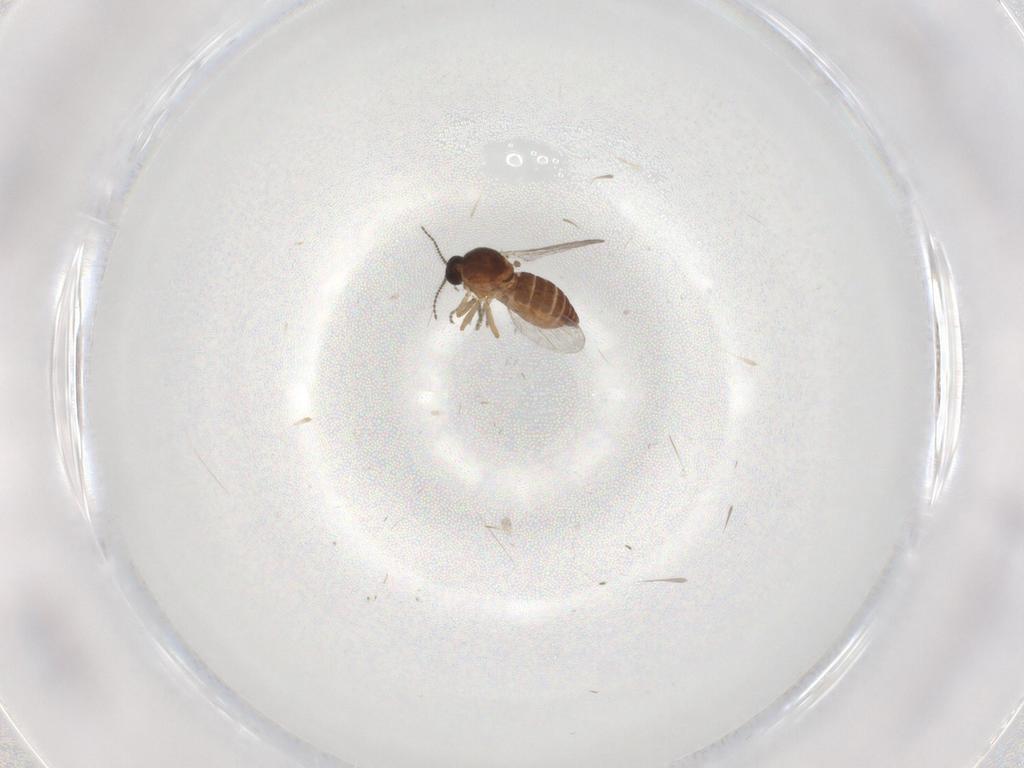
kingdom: Animalia
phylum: Arthropoda
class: Insecta
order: Diptera
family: Ceratopogonidae
